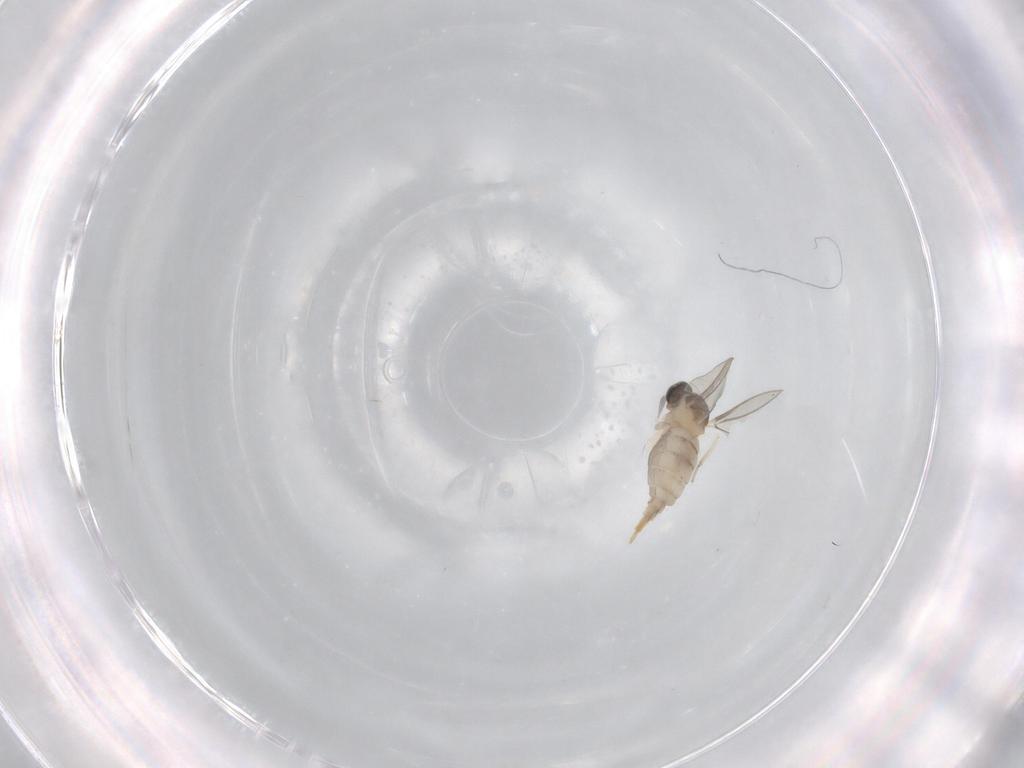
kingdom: Animalia
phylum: Arthropoda
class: Insecta
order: Diptera
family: Cecidomyiidae
